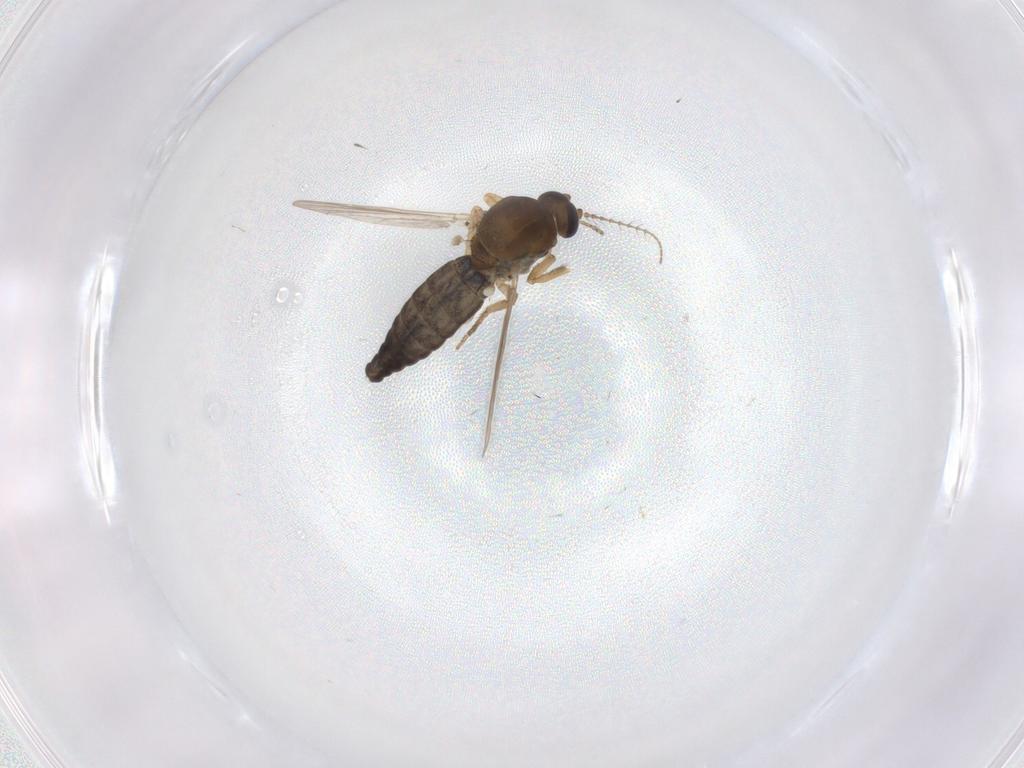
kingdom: Animalia
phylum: Arthropoda
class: Insecta
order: Diptera
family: Ceratopogonidae
